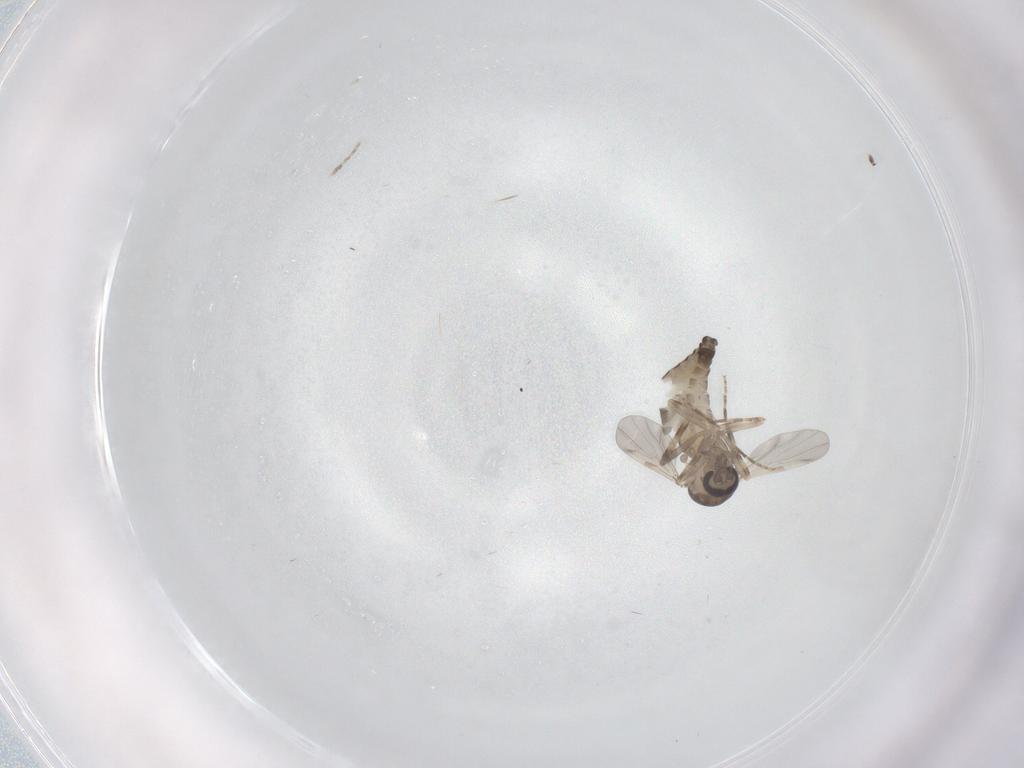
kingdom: Animalia
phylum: Arthropoda
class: Insecta
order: Diptera
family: Ceratopogonidae
